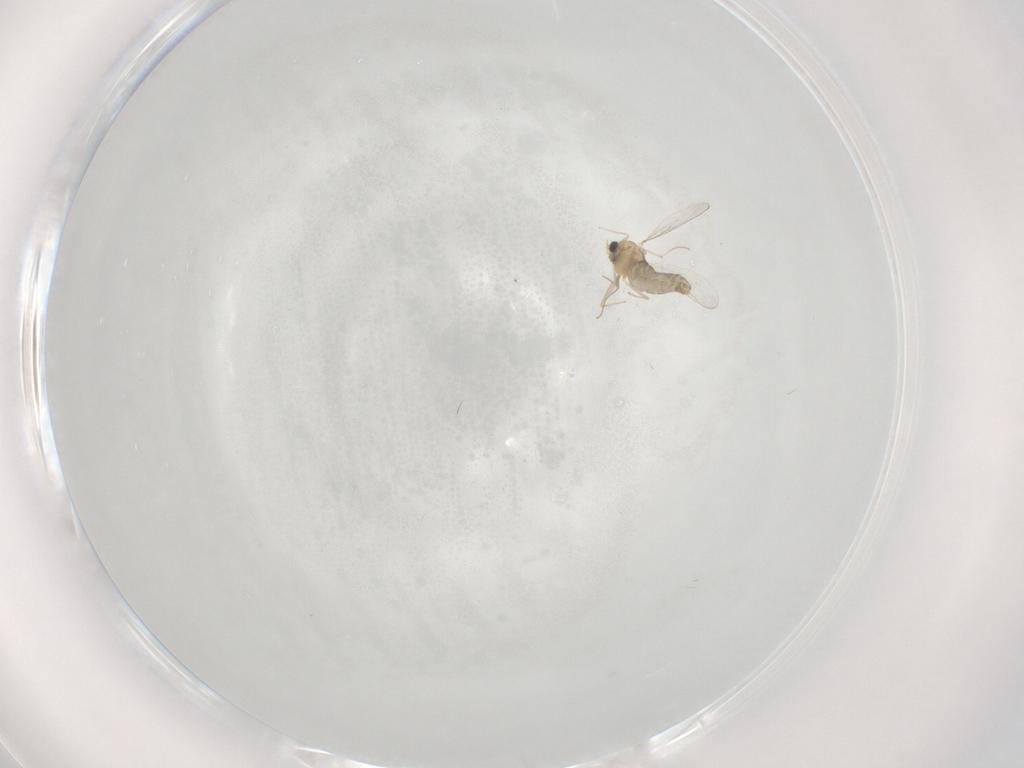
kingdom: Animalia
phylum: Arthropoda
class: Insecta
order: Diptera
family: Chironomidae
